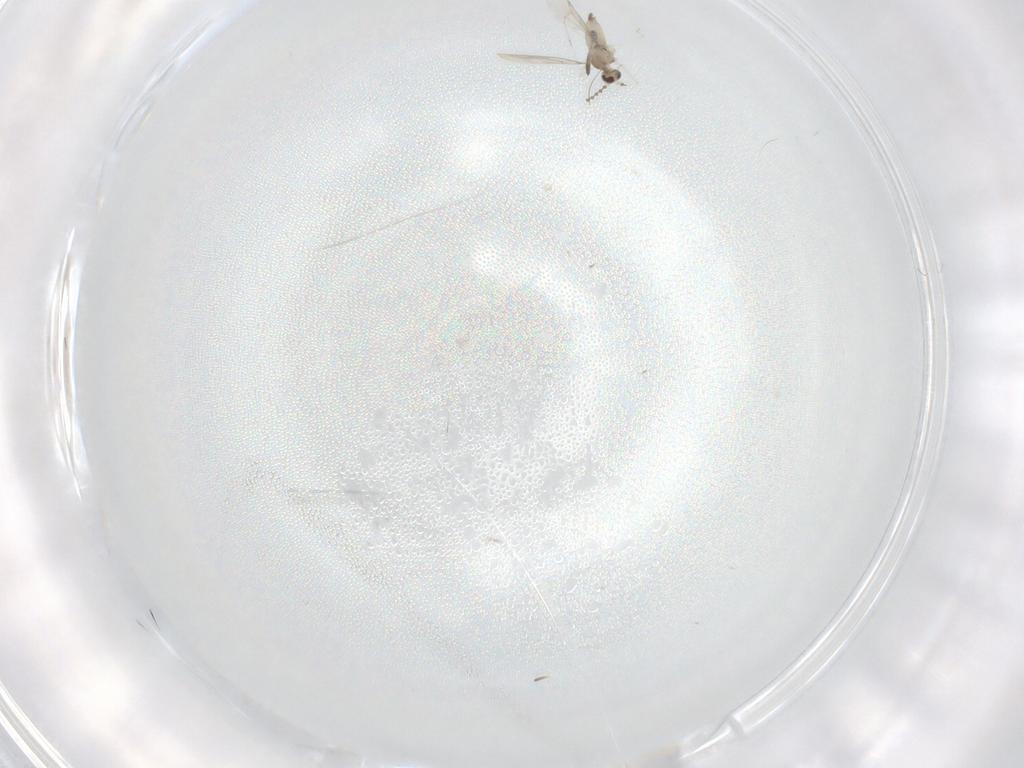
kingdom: Animalia
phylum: Arthropoda
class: Insecta
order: Diptera
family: Cecidomyiidae
